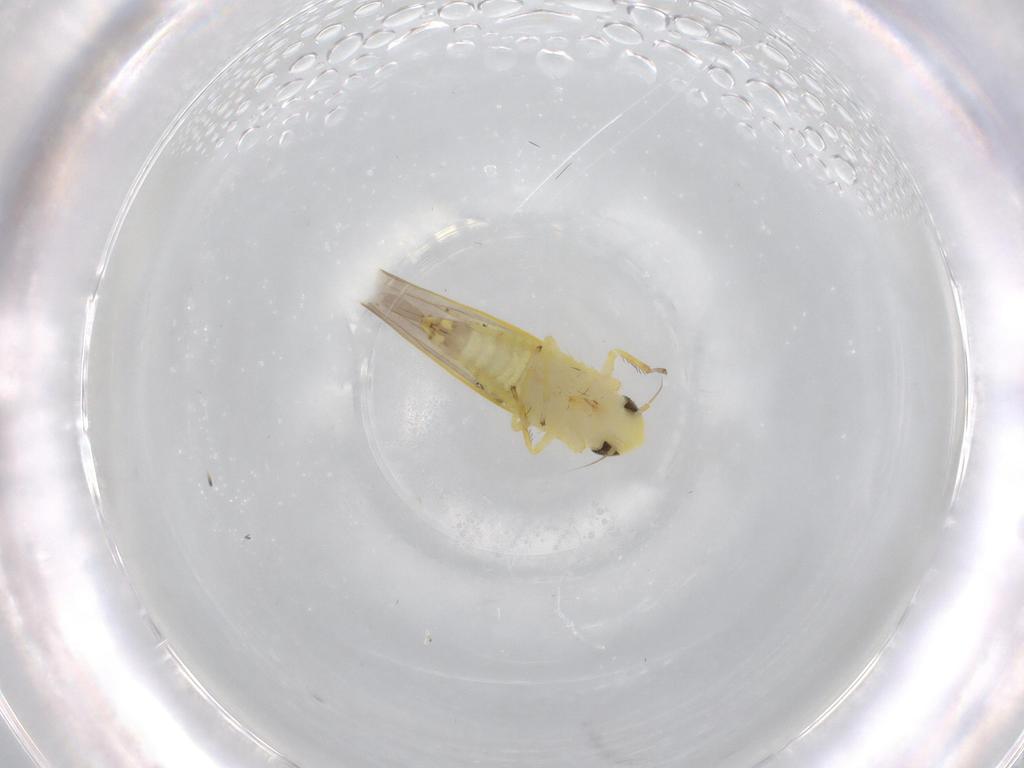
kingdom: Animalia
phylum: Arthropoda
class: Insecta
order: Hemiptera
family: Cicadellidae
